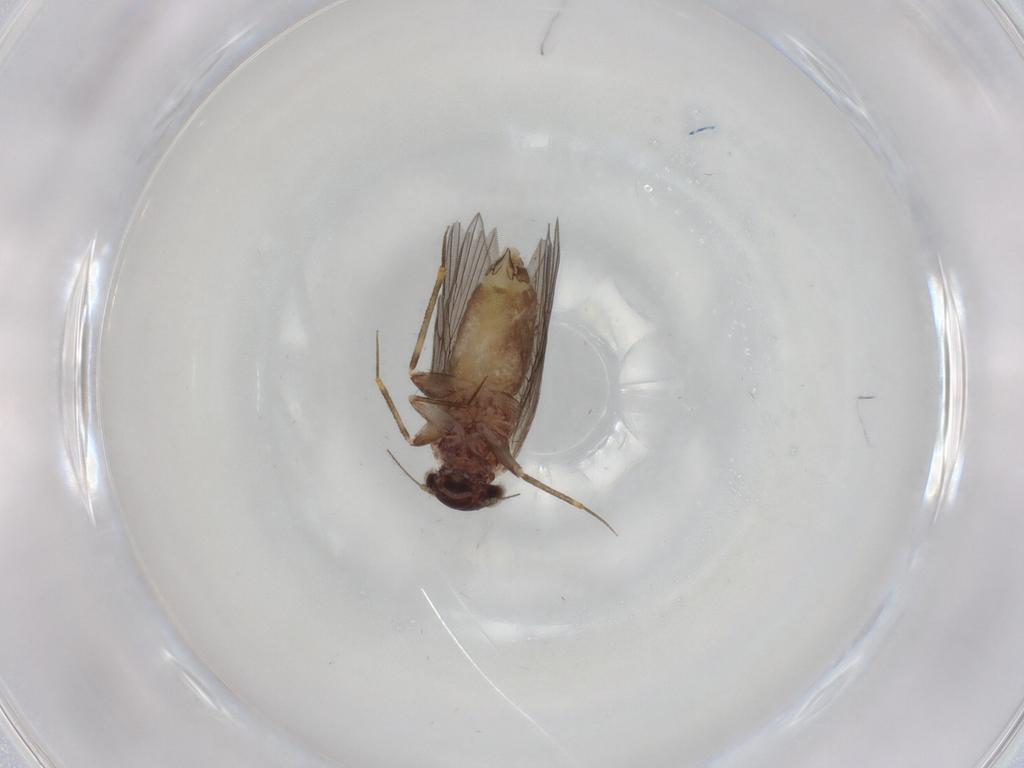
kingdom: Animalia
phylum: Arthropoda
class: Insecta
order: Psocodea
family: Lepidopsocidae
